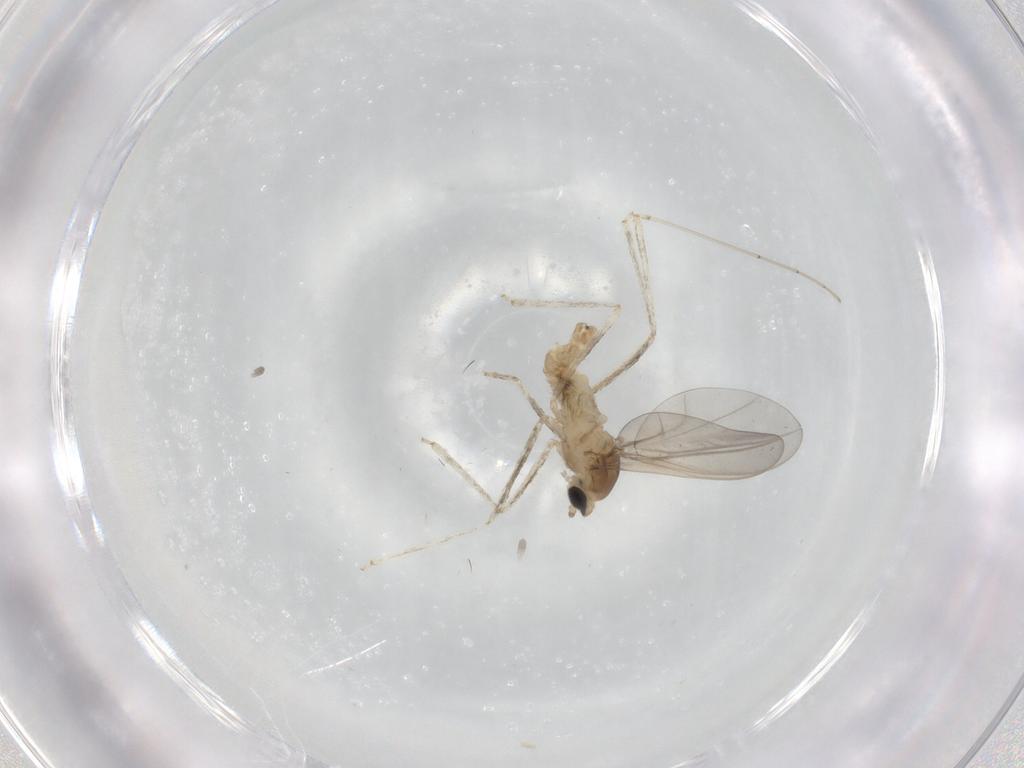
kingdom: Animalia
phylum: Arthropoda
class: Insecta
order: Diptera
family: Cecidomyiidae
